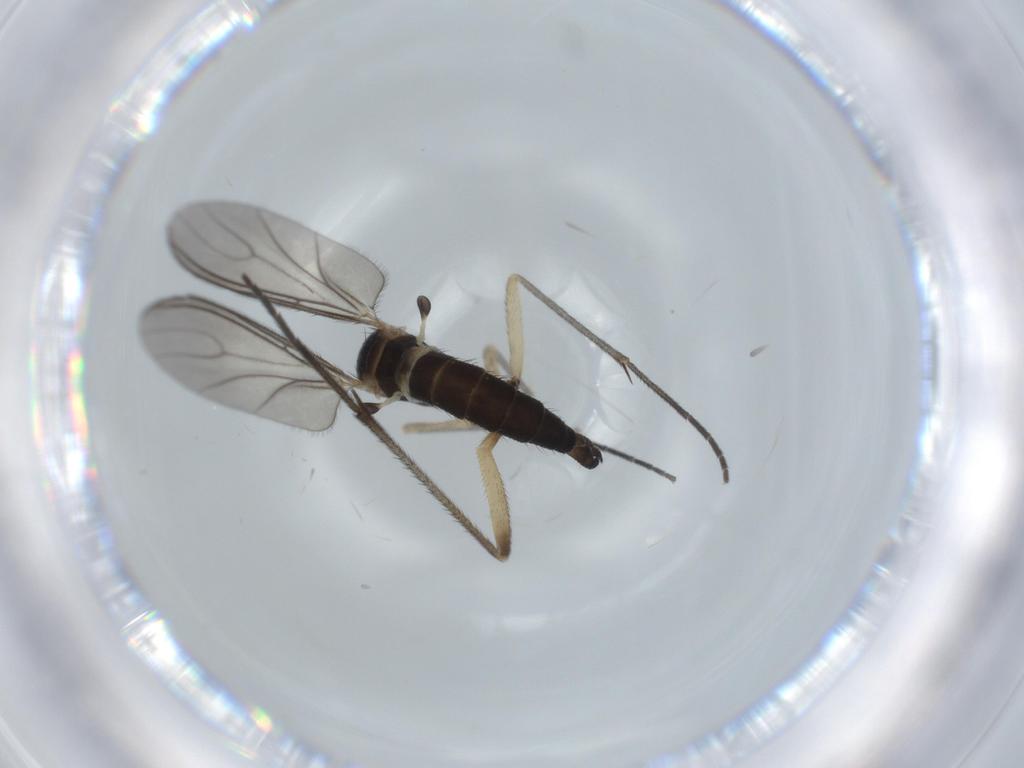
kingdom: Animalia
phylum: Arthropoda
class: Insecta
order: Diptera
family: Sciaridae
